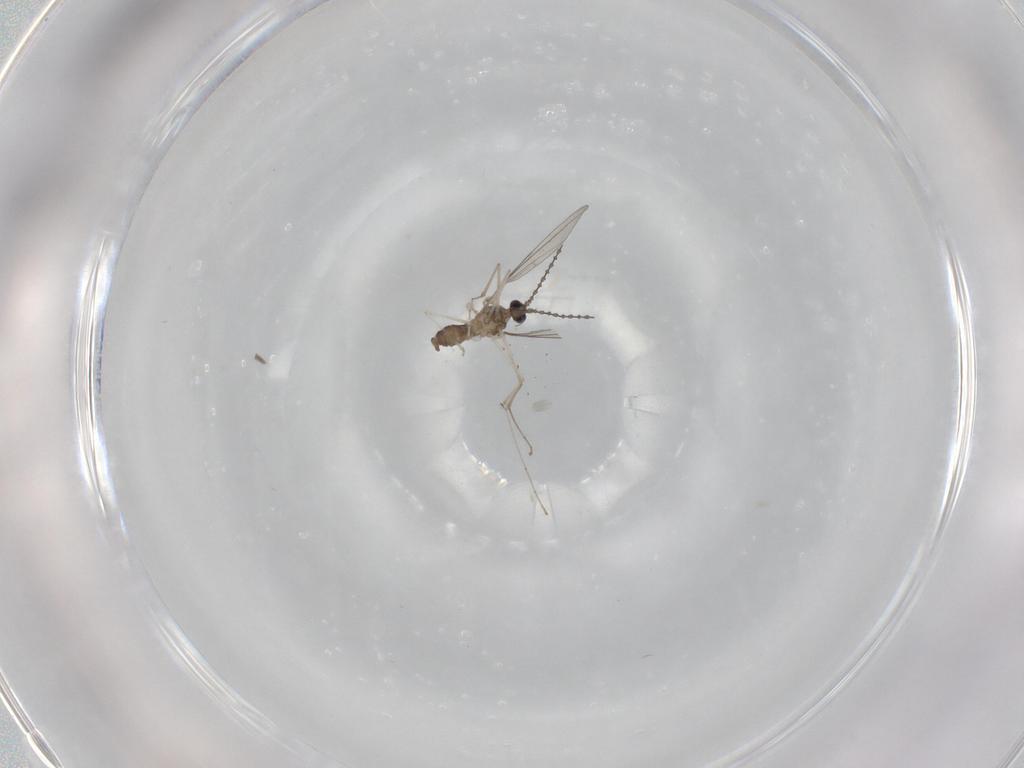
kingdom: Animalia
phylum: Arthropoda
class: Insecta
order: Diptera
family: Cecidomyiidae
